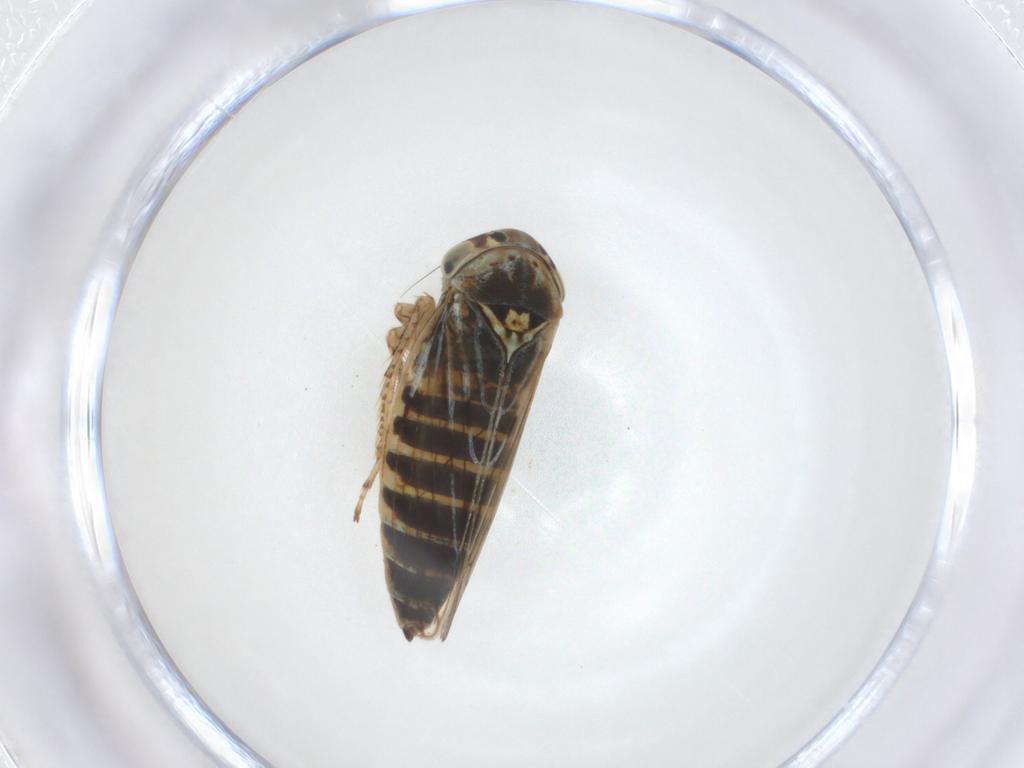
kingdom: Animalia
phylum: Arthropoda
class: Insecta
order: Hemiptera
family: Cicadellidae
